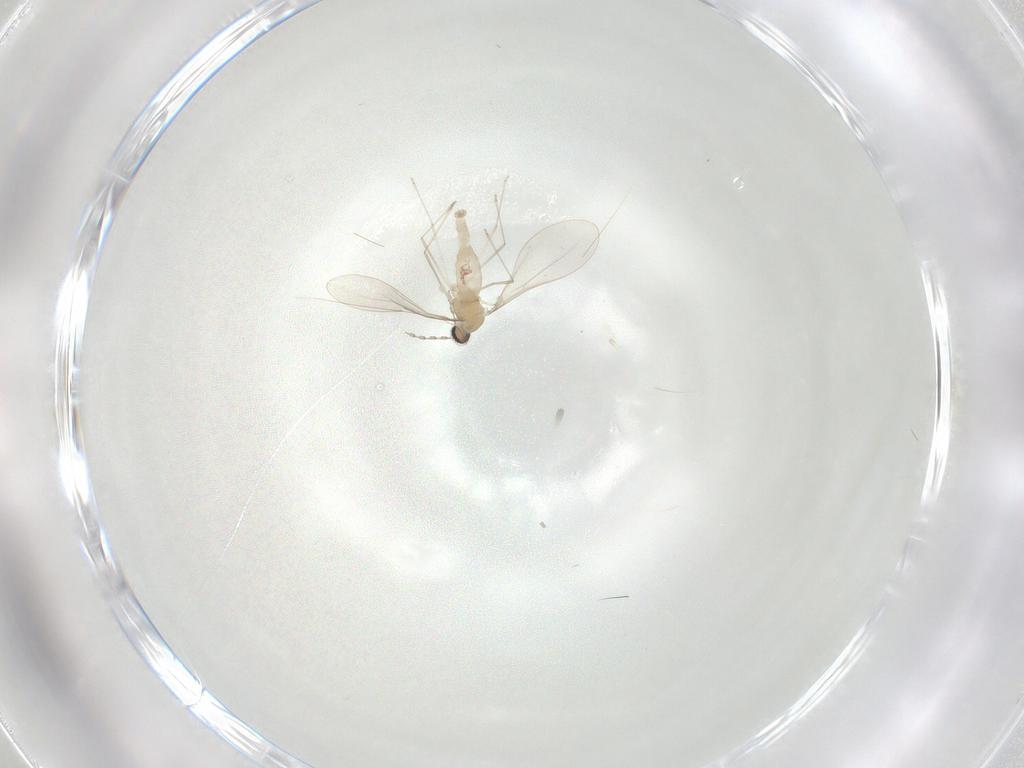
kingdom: Animalia
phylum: Arthropoda
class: Insecta
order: Diptera
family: Cecidomyiidae
